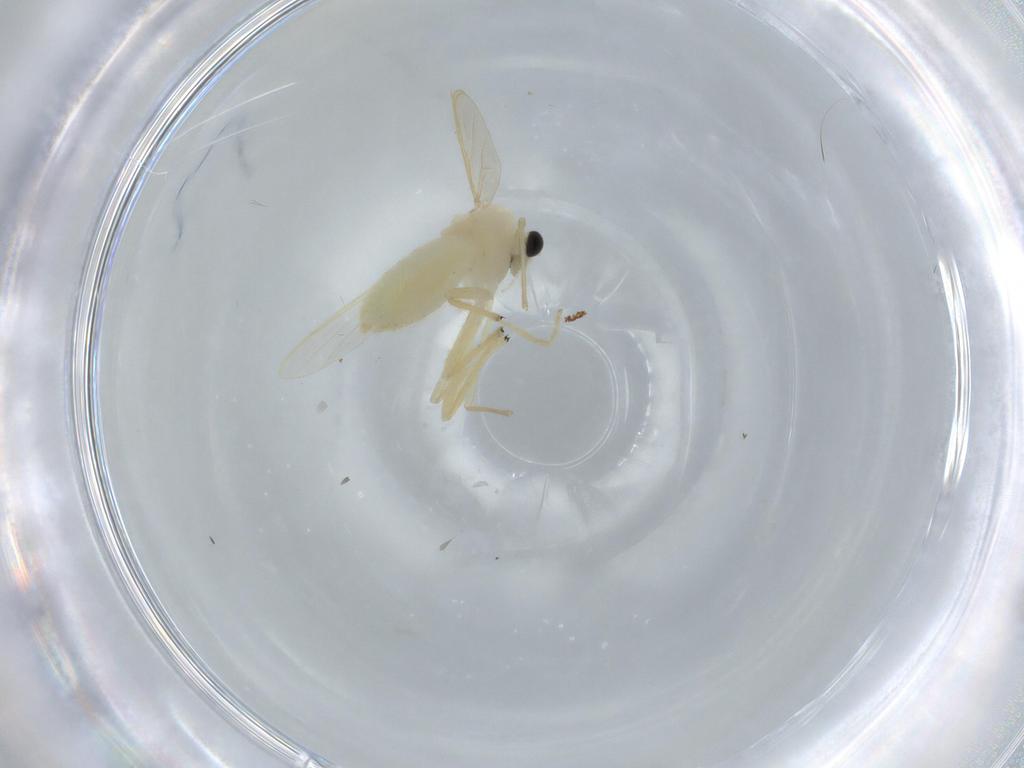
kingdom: Animalia
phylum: Arthropoda
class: Insecta
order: Diptera
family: Chironomidae
